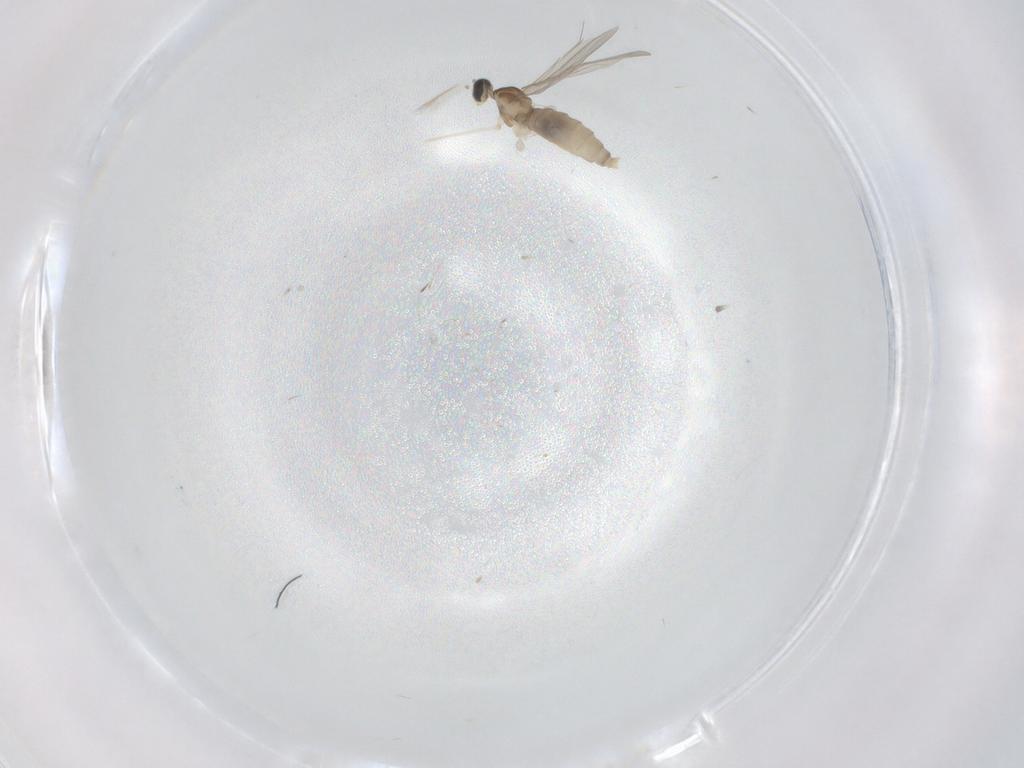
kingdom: Animalia
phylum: Arthropoda
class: Insecta
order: Diptera
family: Cecidomyiidae
